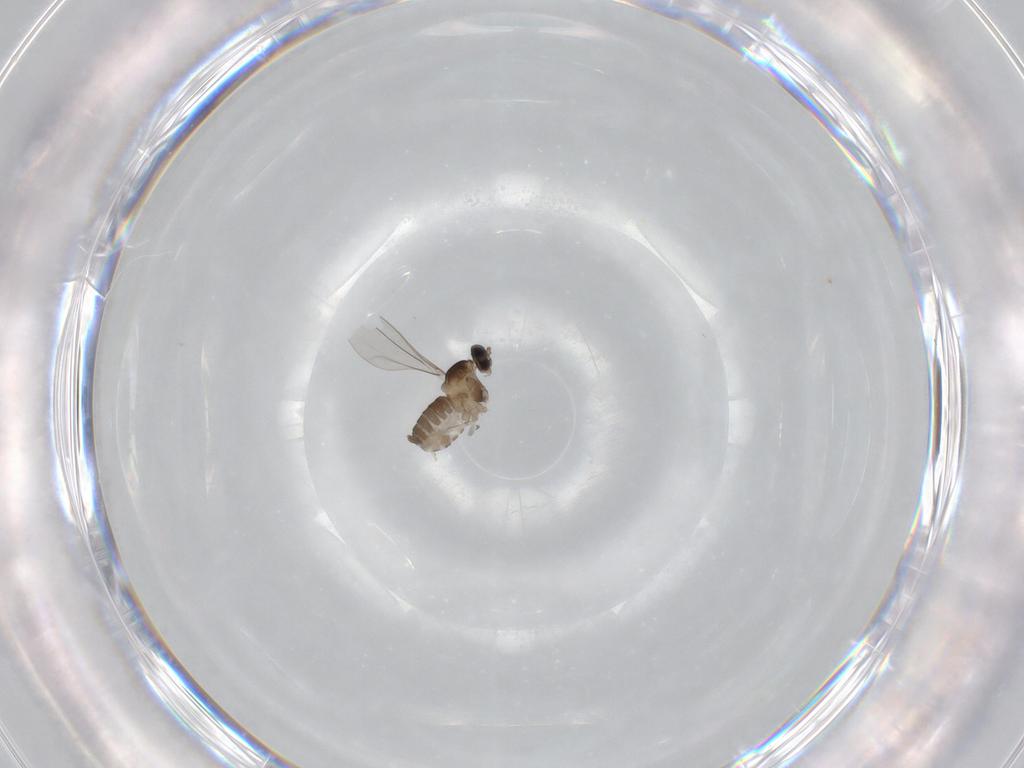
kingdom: Animalia
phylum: Arthropoda
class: Insecta
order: Diptera
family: Cecidomyiidae
